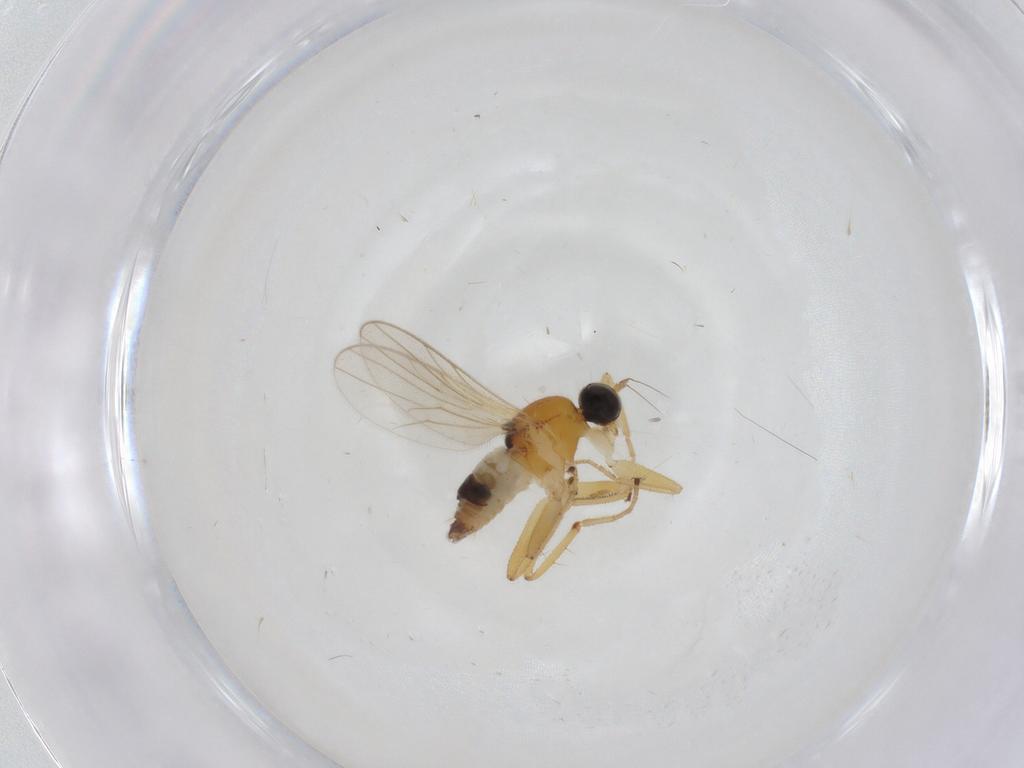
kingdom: Animalia
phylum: Arthropoda
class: Insecta
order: Diptera
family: Hybotidae
